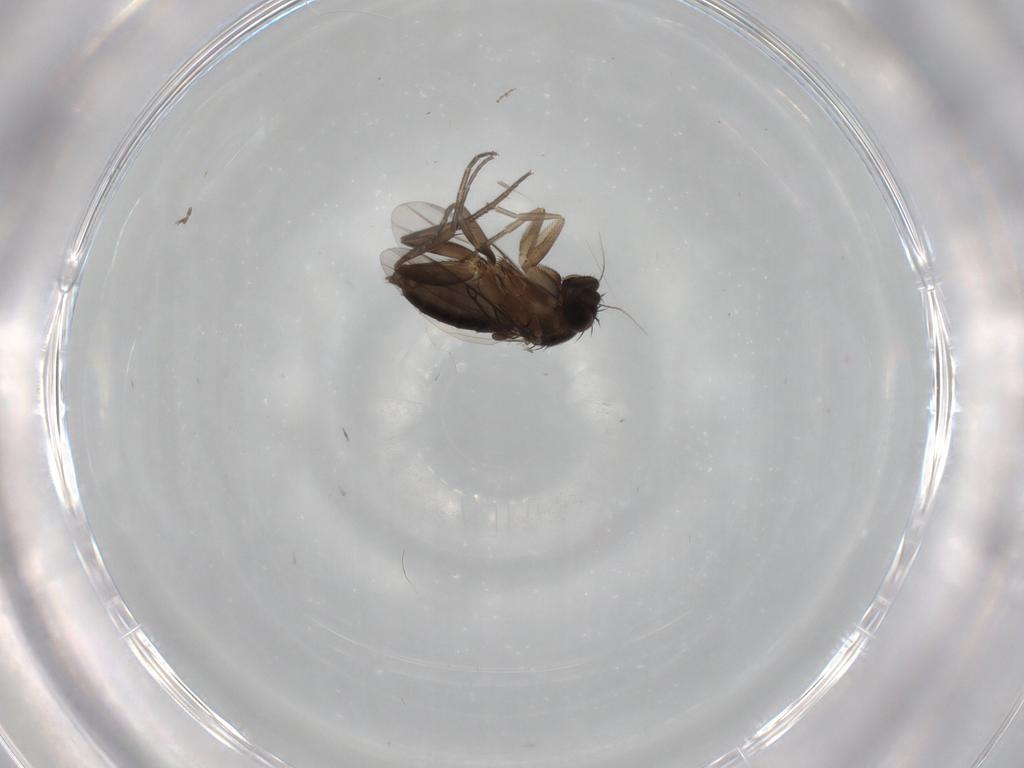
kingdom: Animalia
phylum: Arthropoda
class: Insecta
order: Diptera
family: Phoridae
